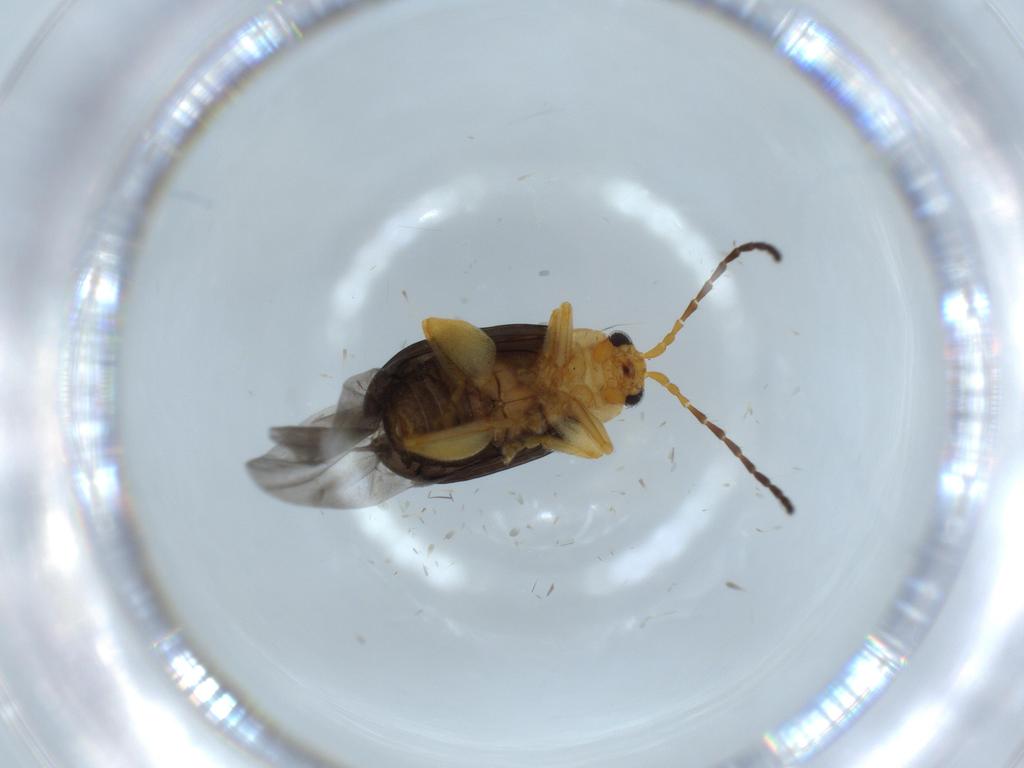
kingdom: Animalia
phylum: Arthropoda
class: Insecta
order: Coleoptera
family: Chrysomelidae
